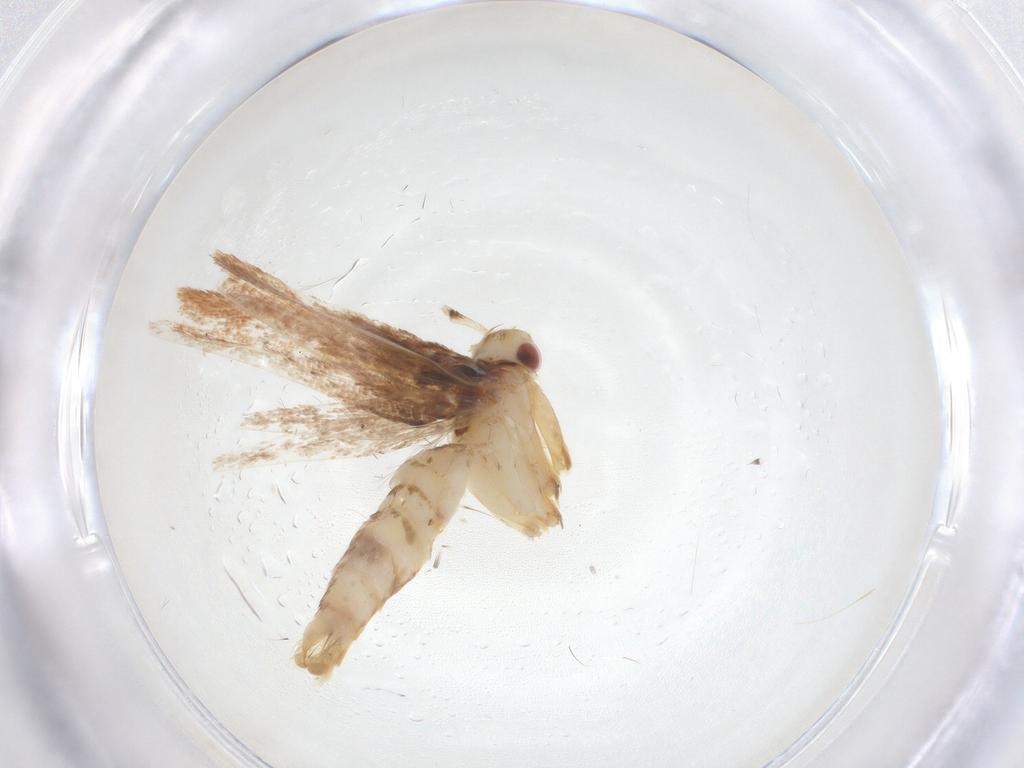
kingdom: Animalia
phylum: Arthropoda
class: Insecta
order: Lepidoptera
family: Cosmopterigidae
